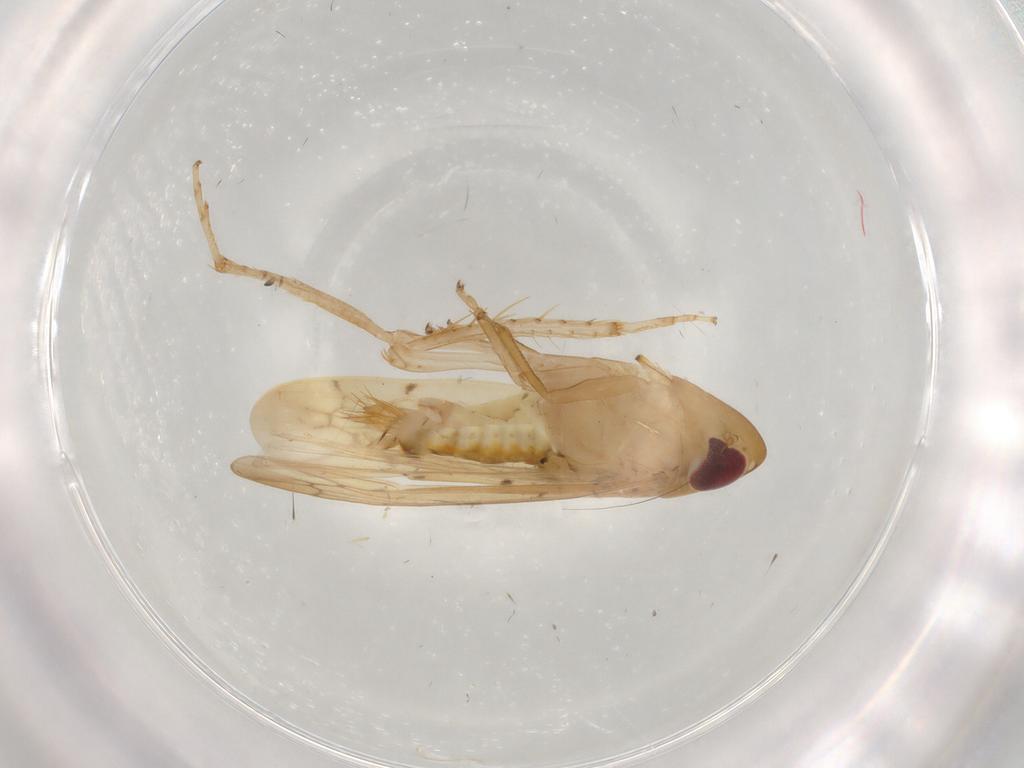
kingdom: Animalia
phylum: Arthropoda
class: Insecta
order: Hemiptera
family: Cicadellidae
